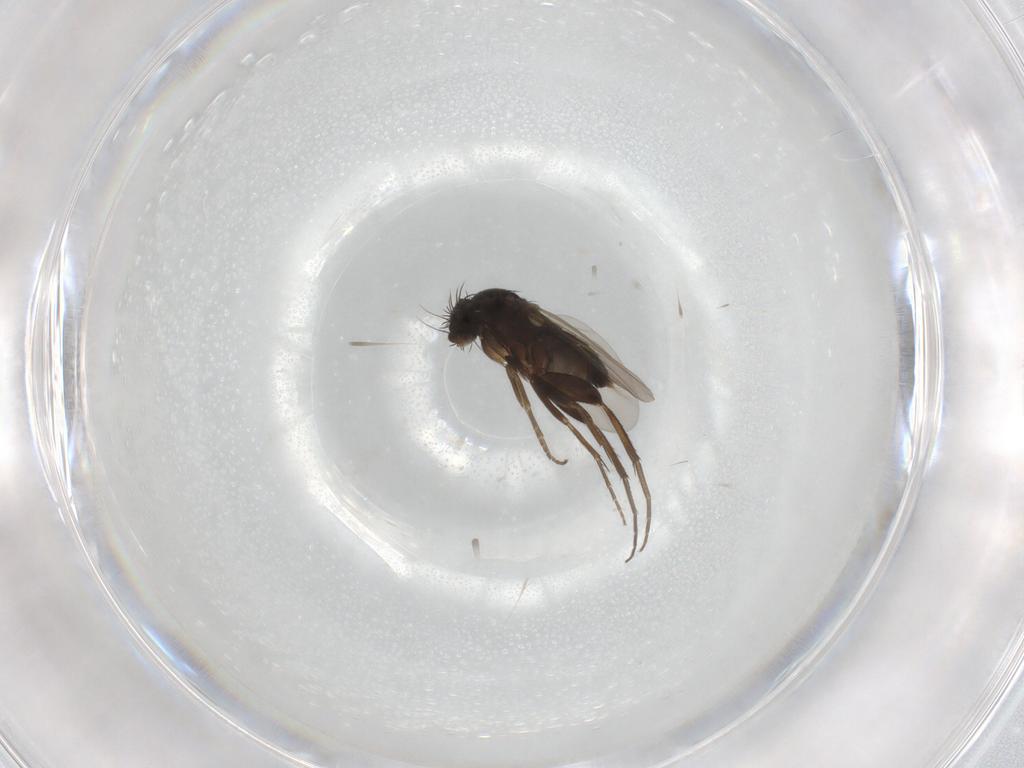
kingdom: Animalia
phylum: Arthropoda
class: Insecta
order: Diptera
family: Phoridae
